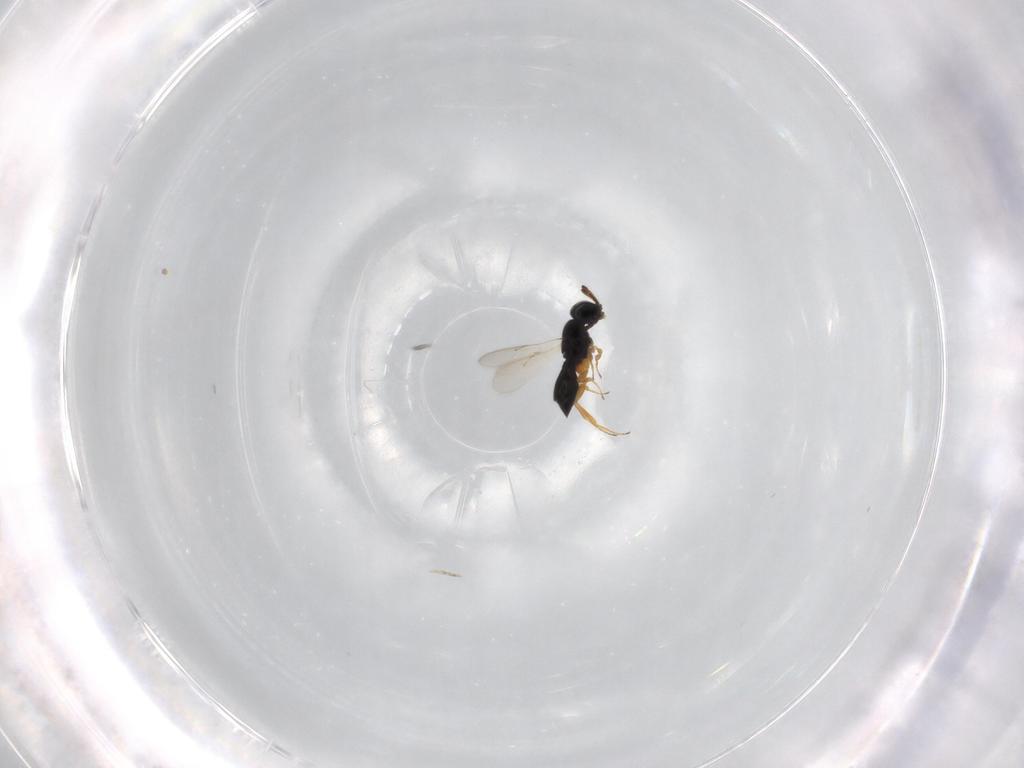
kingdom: Animalia
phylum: Arthropoda
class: Insecta
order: Hymenoptera
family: Scelionidae
